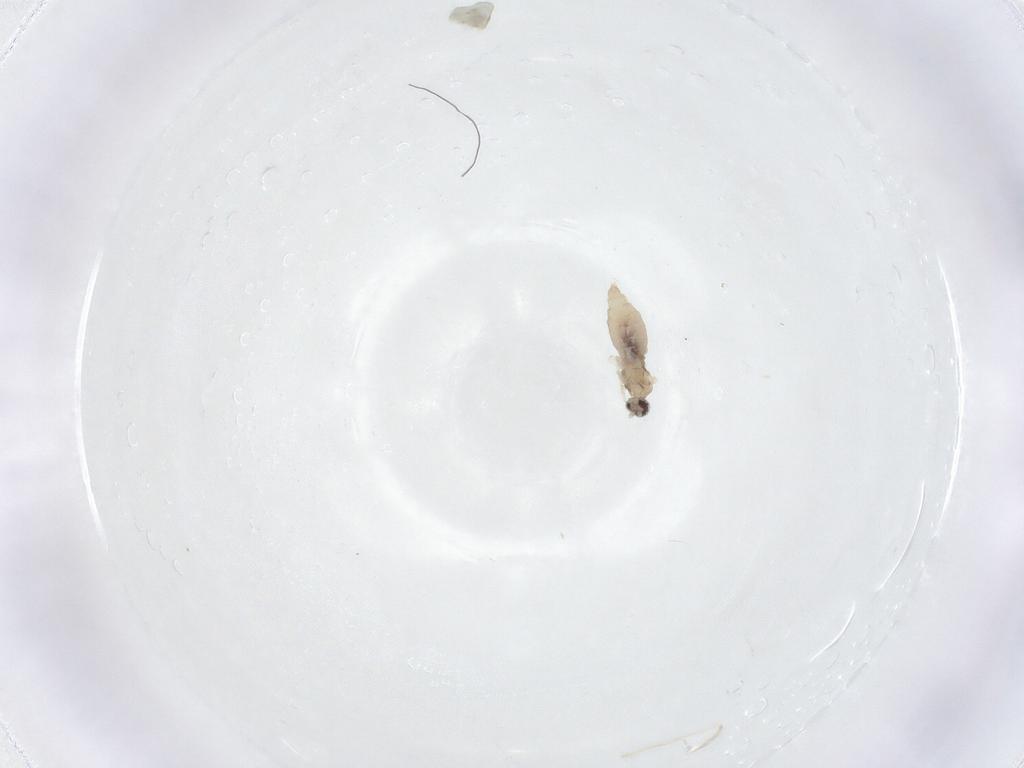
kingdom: Animalia
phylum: Arthropoda
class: Insecta
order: Diptera
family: Cecidomyiidae
